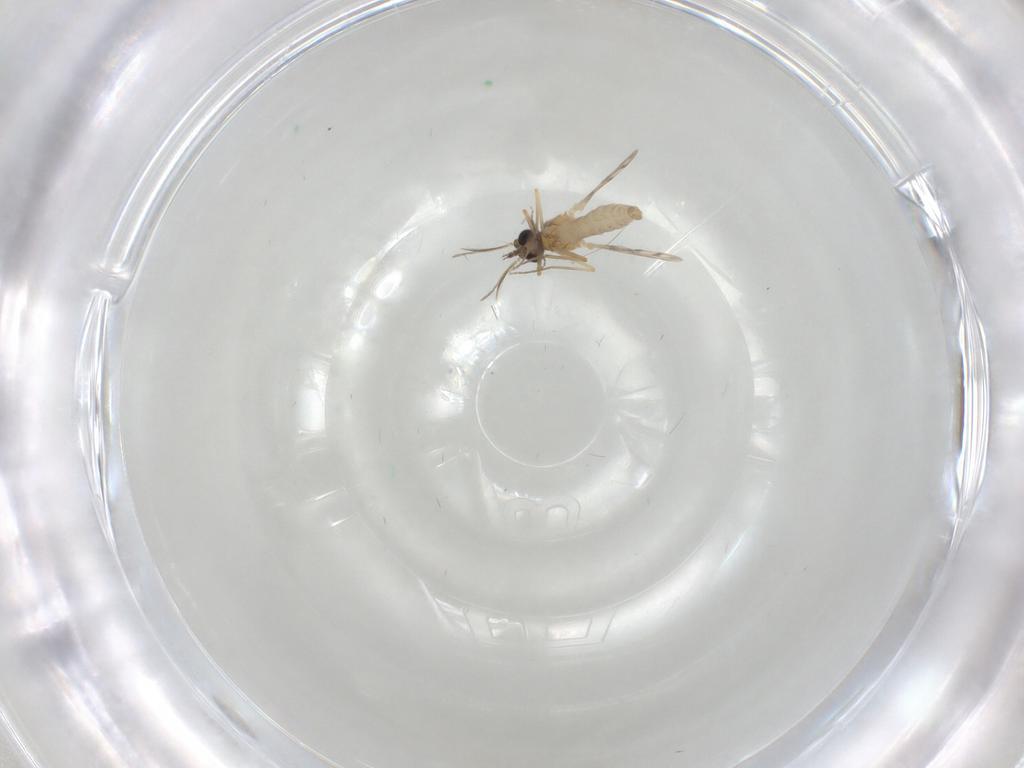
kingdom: Animalia
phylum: Arthropoda
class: Insecta
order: Diptera
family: Ceratopogonidae
